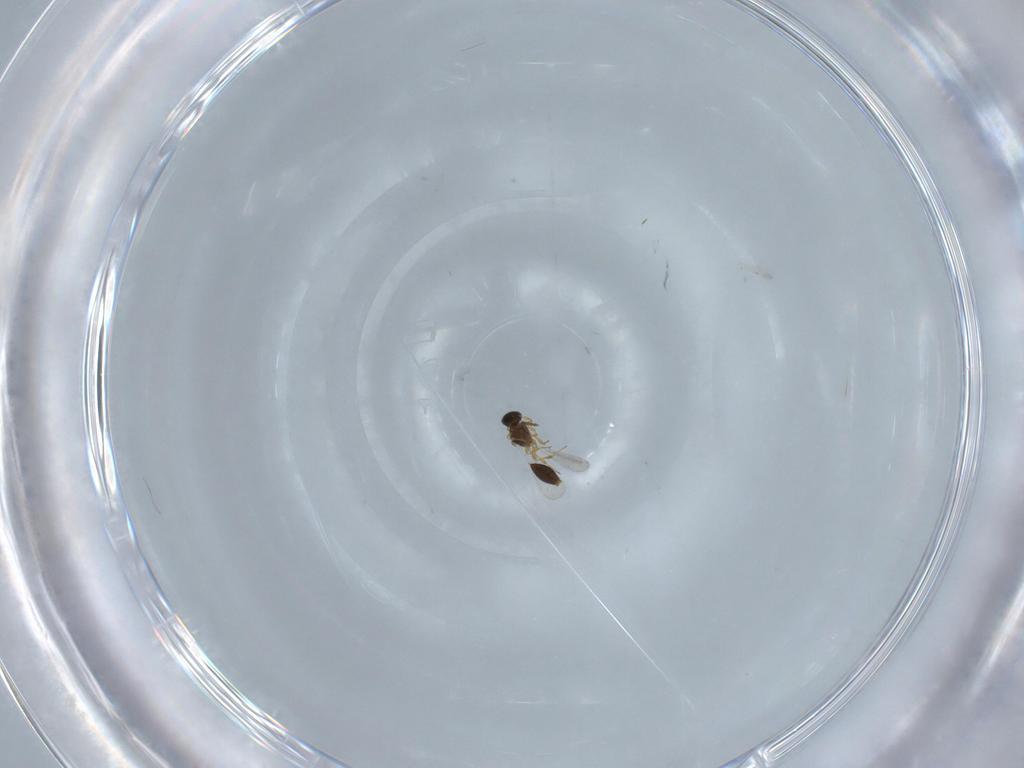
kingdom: Animalia
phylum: Arthropoda
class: Insecta
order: Hymenoptera
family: Platygastridae
